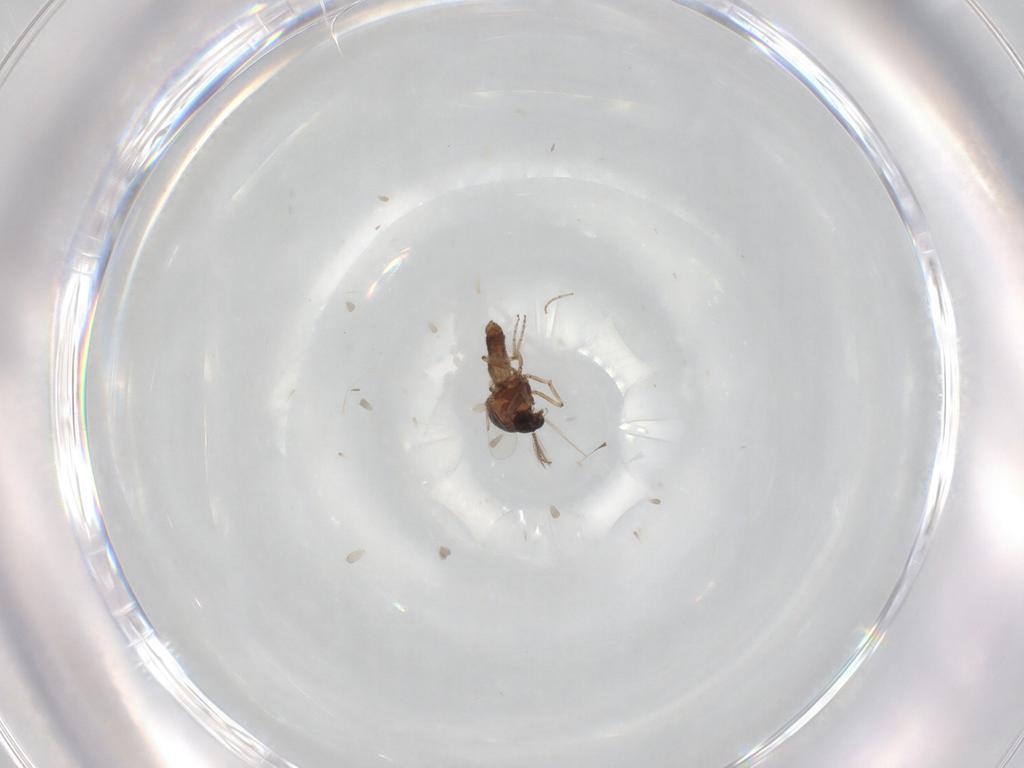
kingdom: Animalia
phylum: Arthropoda
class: Insecta
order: Diptera
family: Ceratopogonidae
